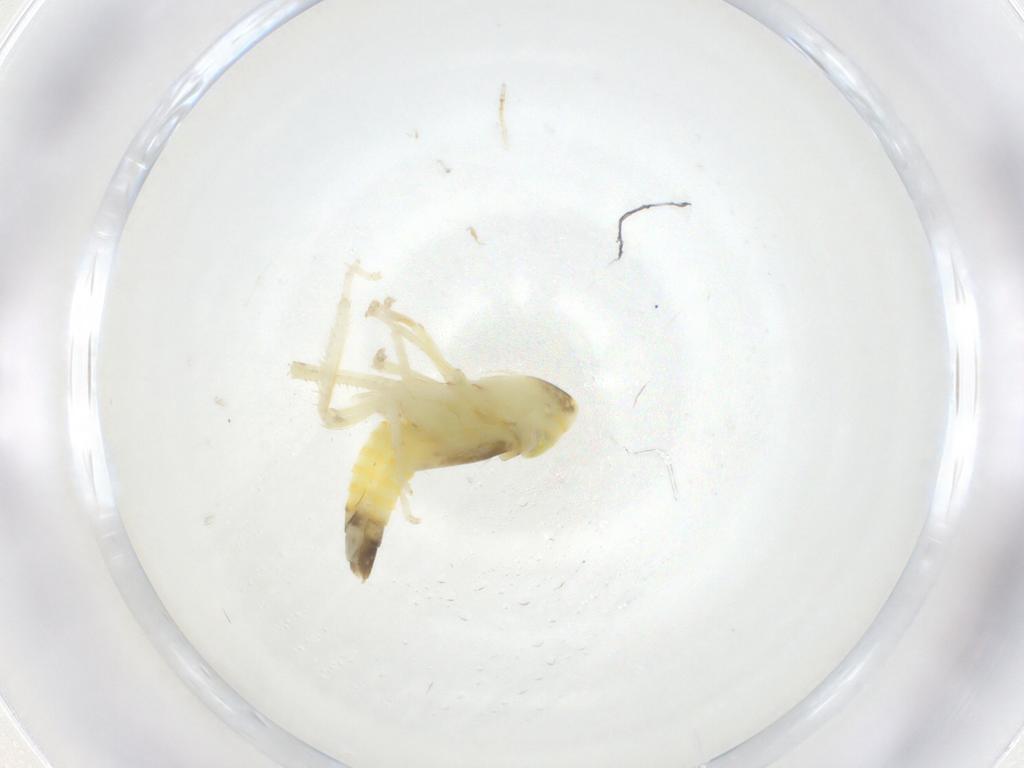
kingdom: Animalia
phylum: Arthropoda
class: Insecta
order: Hemiptera
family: Cicadellidae
